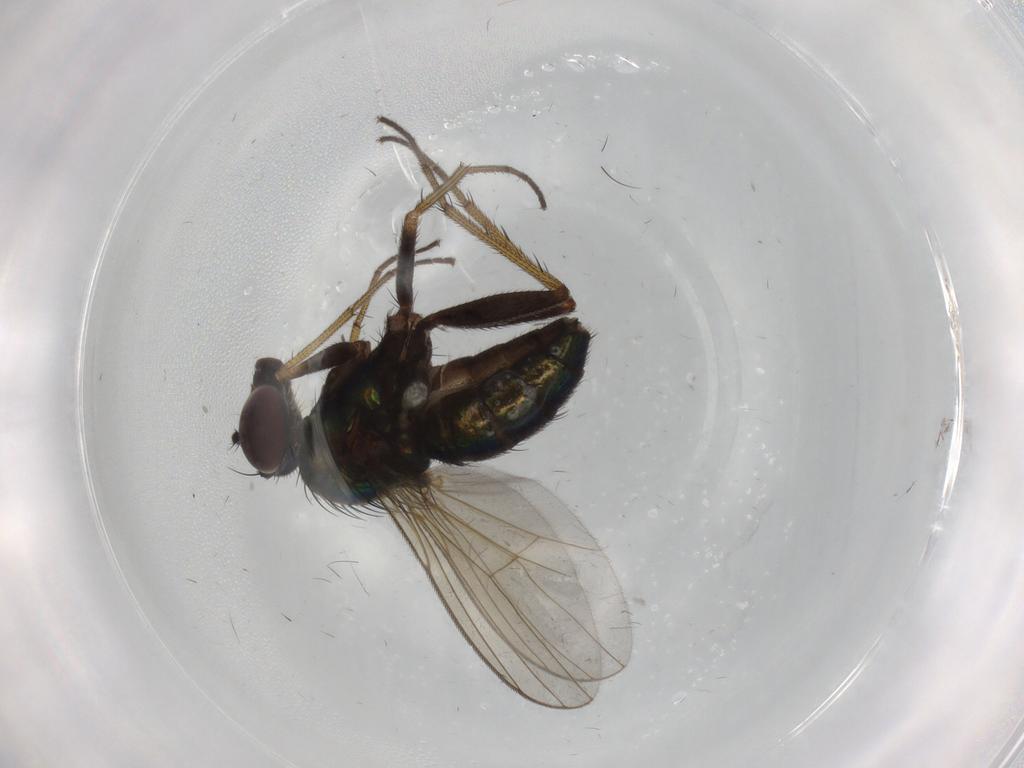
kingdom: Animalia
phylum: Arthropoda
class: Insecta
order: Diptera
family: Dolichopodidae
